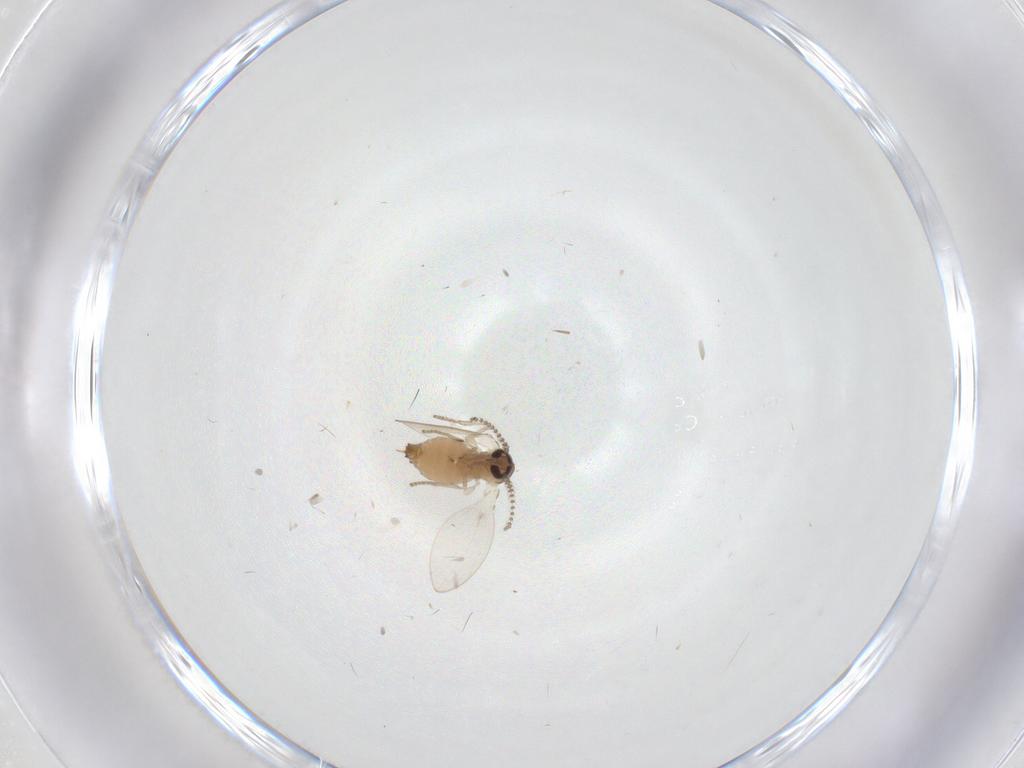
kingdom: Animalia
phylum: Arthropoda
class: Insecta
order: Diptera
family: Psychodidae
